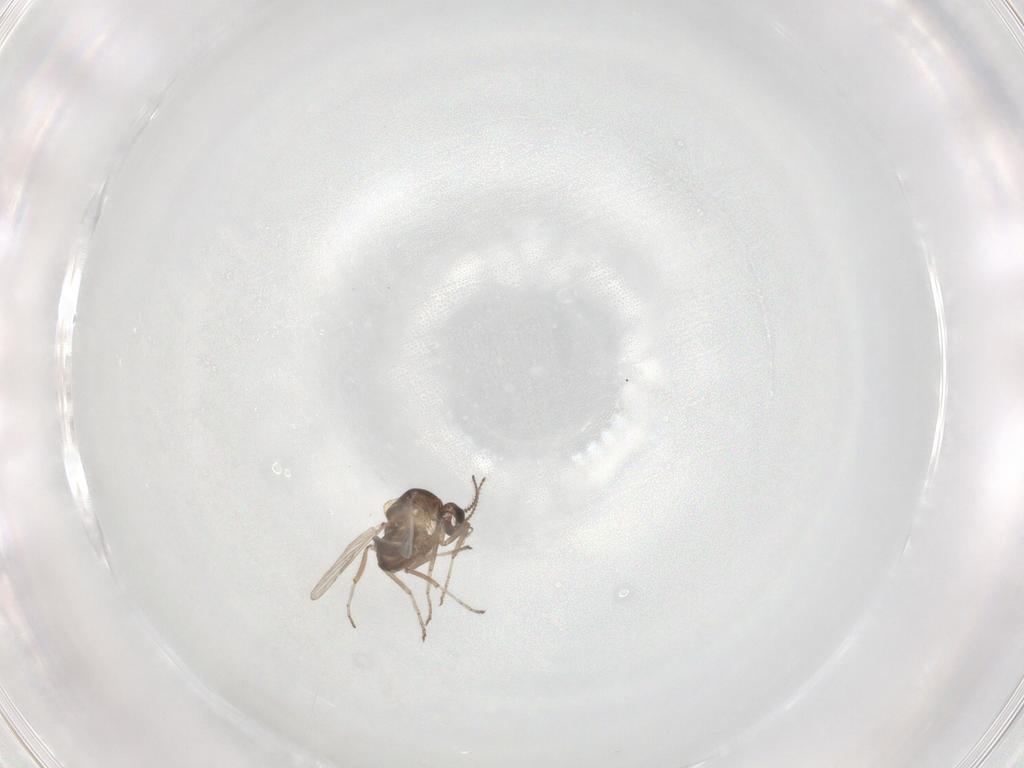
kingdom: Animalia
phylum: Arthropoda
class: Insecta
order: Diptera
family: Ceratopogonidae
